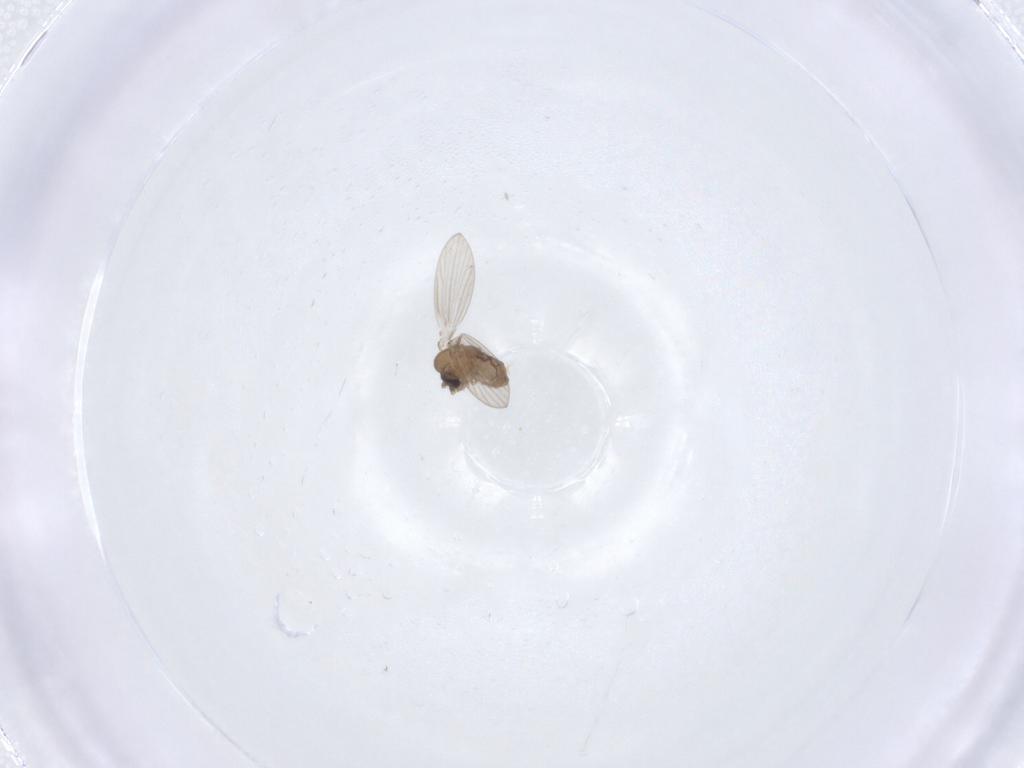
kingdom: Animalia
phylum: Arthropoda
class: Insecta
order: Diptera
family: Psychodidae
